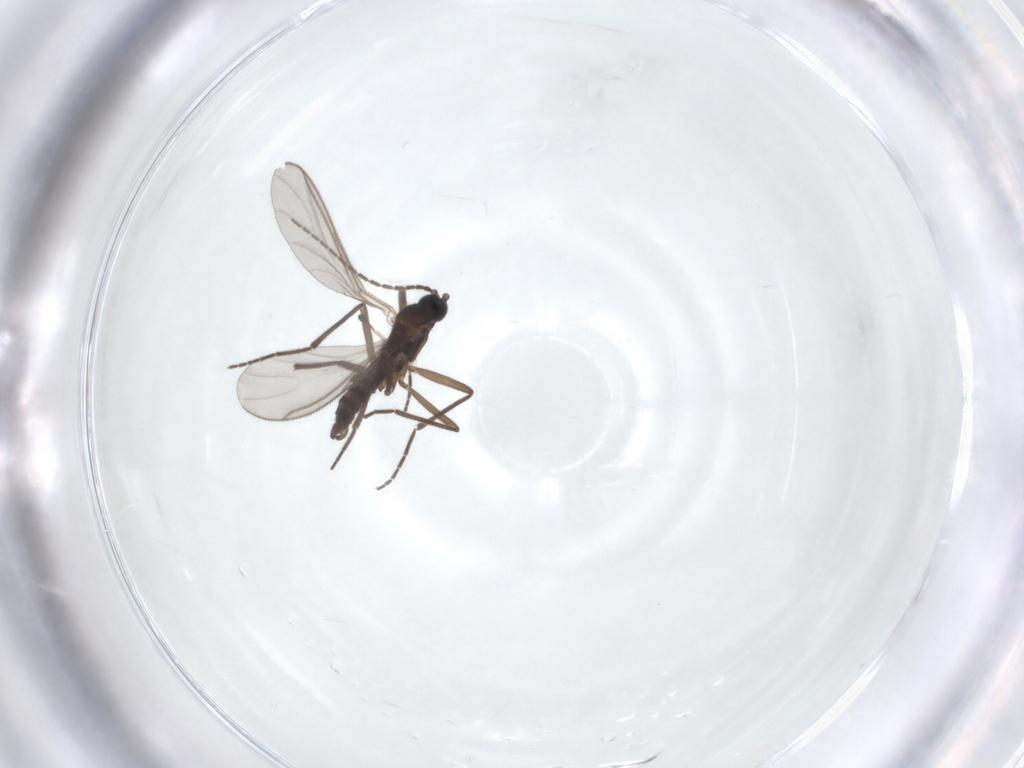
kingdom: Animalia
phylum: Arthropoda
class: Insecta
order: Diptera
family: Sciaridae
